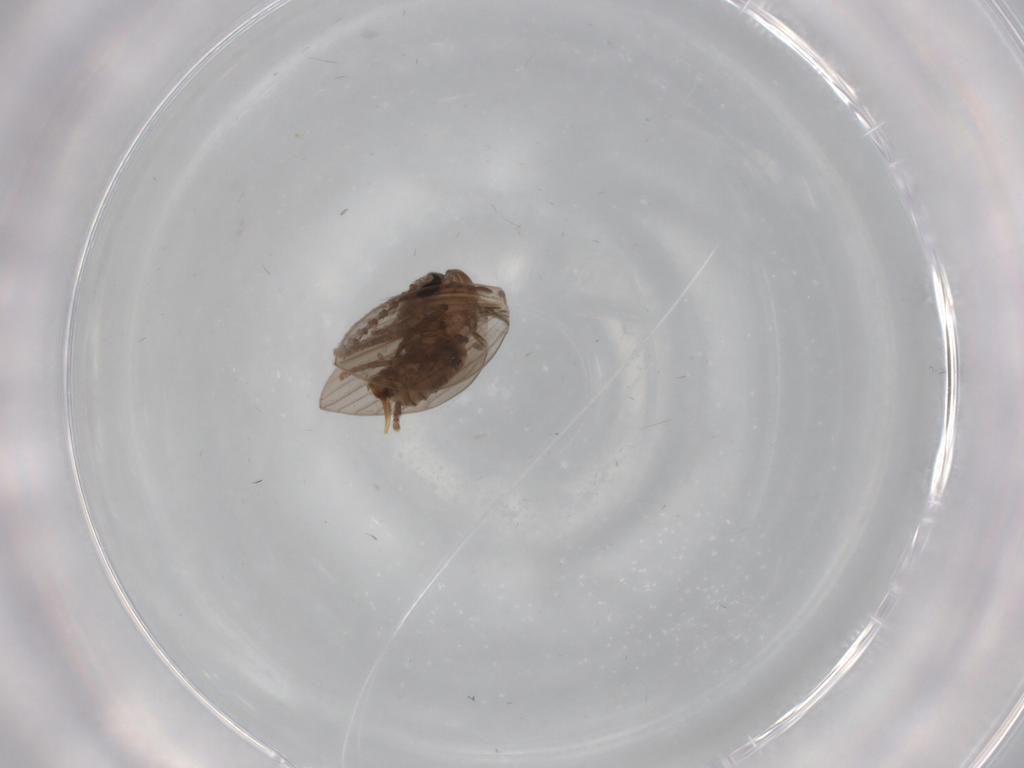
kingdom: Animalia
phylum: Arthropoda
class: Insecta
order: Diptera
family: Psychodidae
